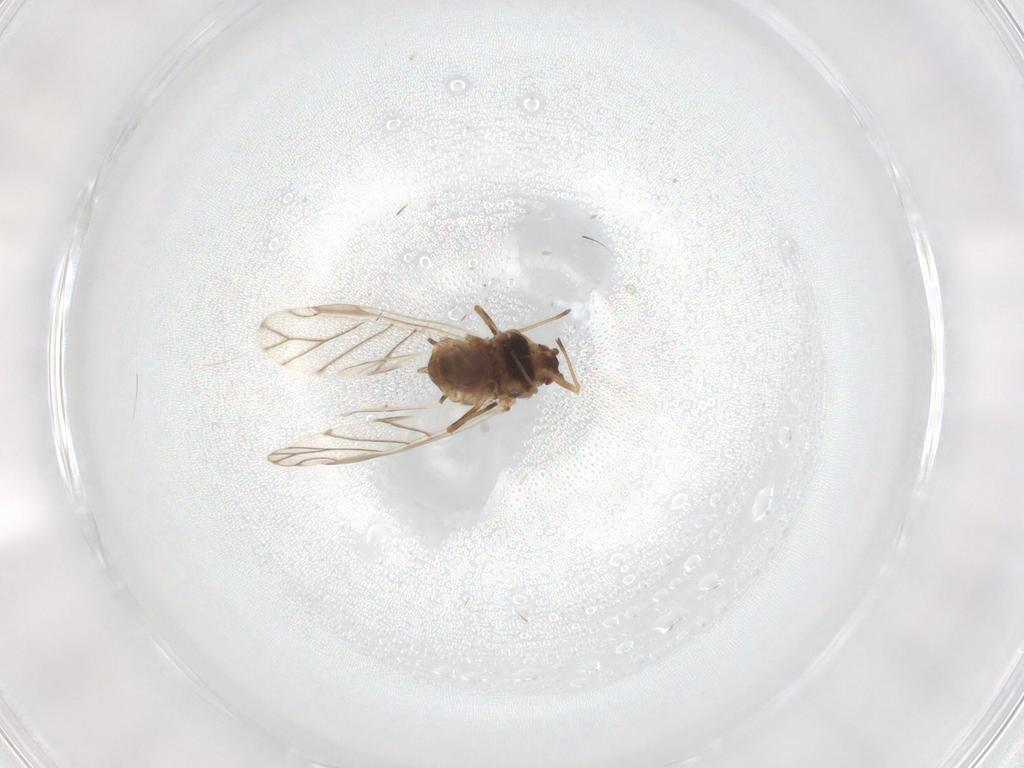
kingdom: Animalia
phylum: Arthropoda
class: Insecta
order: Hemiptera
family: Aphididae
